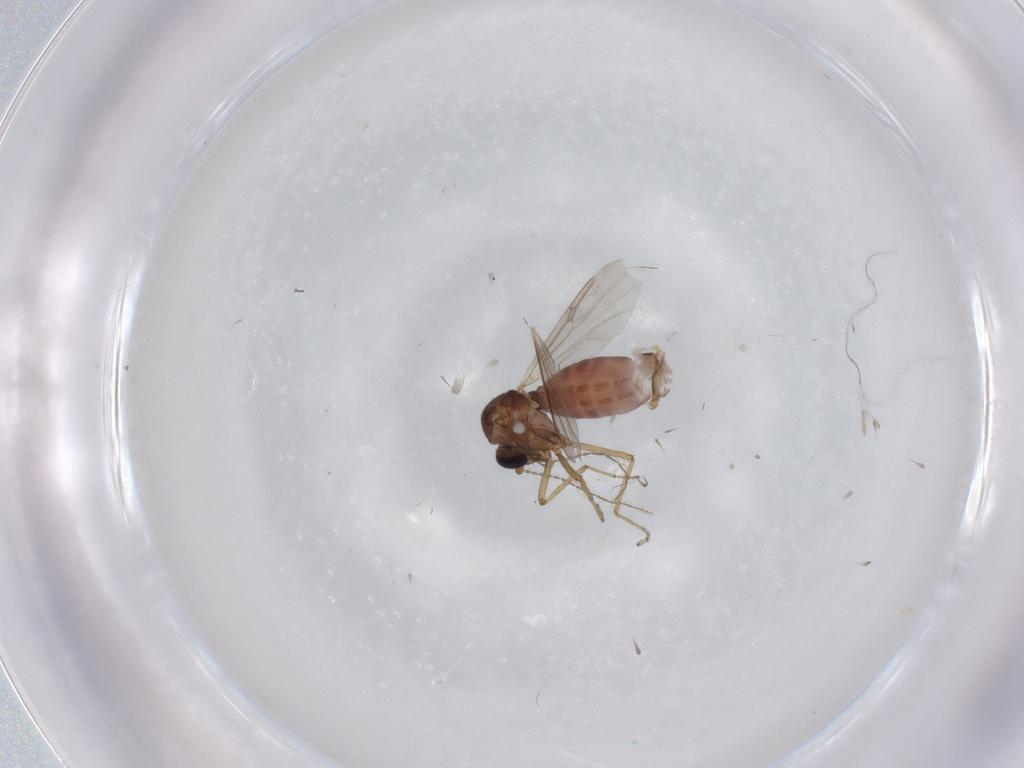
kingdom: Animalia
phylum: Arthropoda
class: Insecta
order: Diptera
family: Ceratopogonidae
